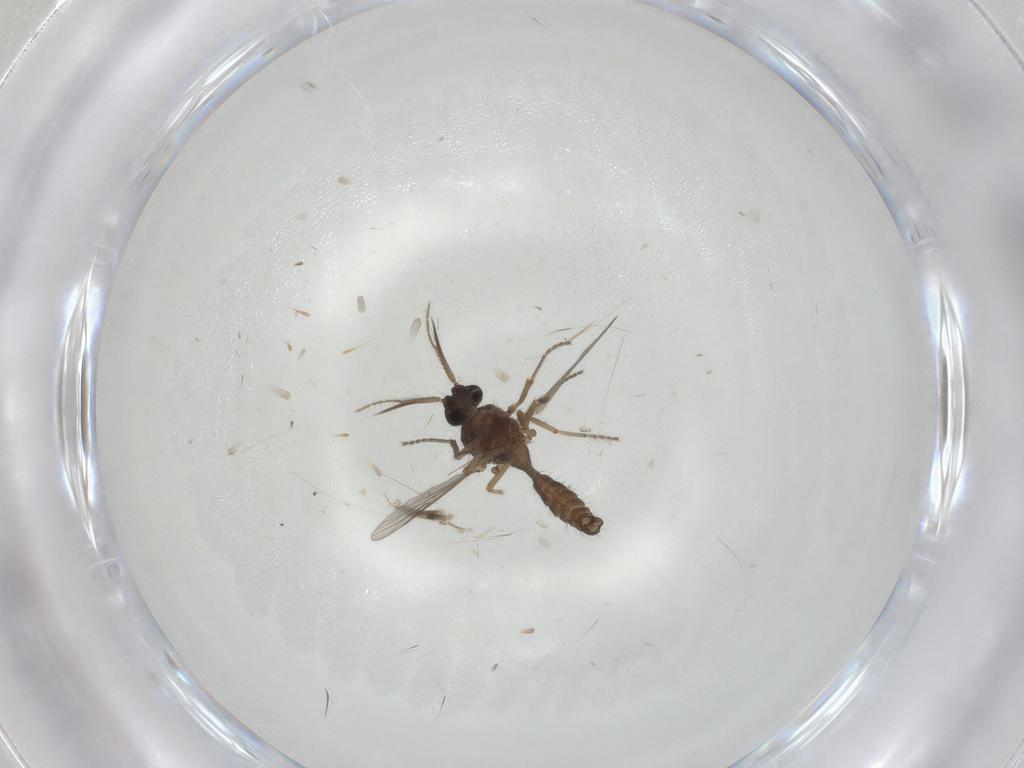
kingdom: Animalia
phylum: Arthropoda
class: Insecta
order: Diptera
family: Ceratopogonidae
